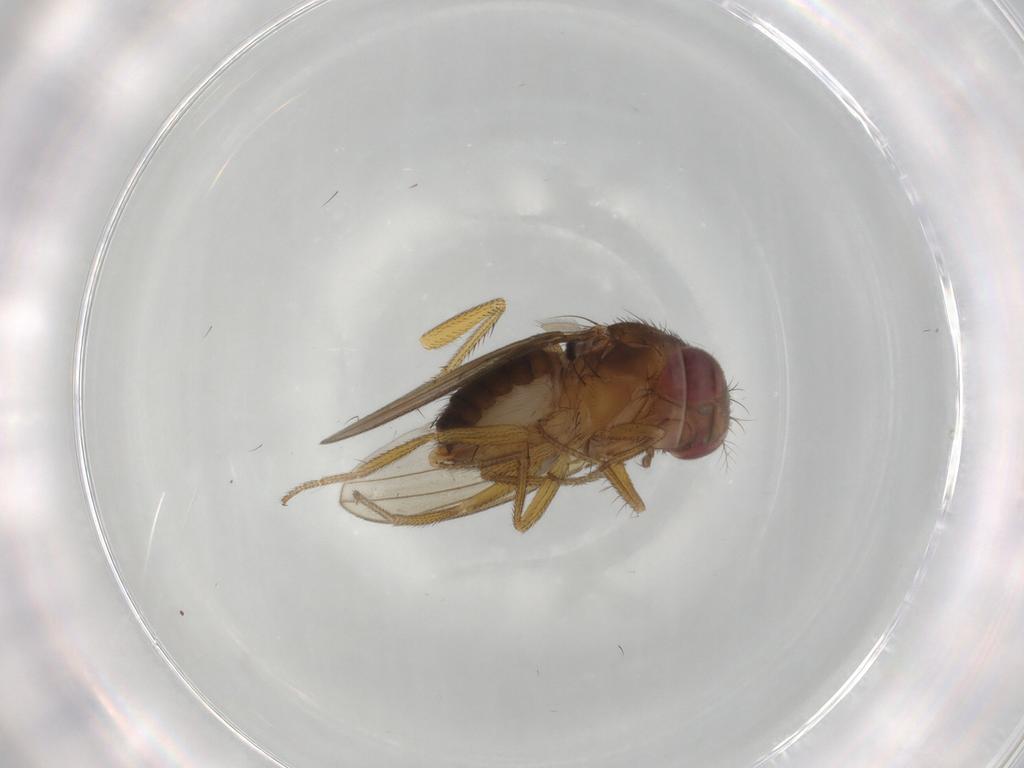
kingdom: Animalia
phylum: Arthropoda
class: Insecta
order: Diptera
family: Drosophilidae
